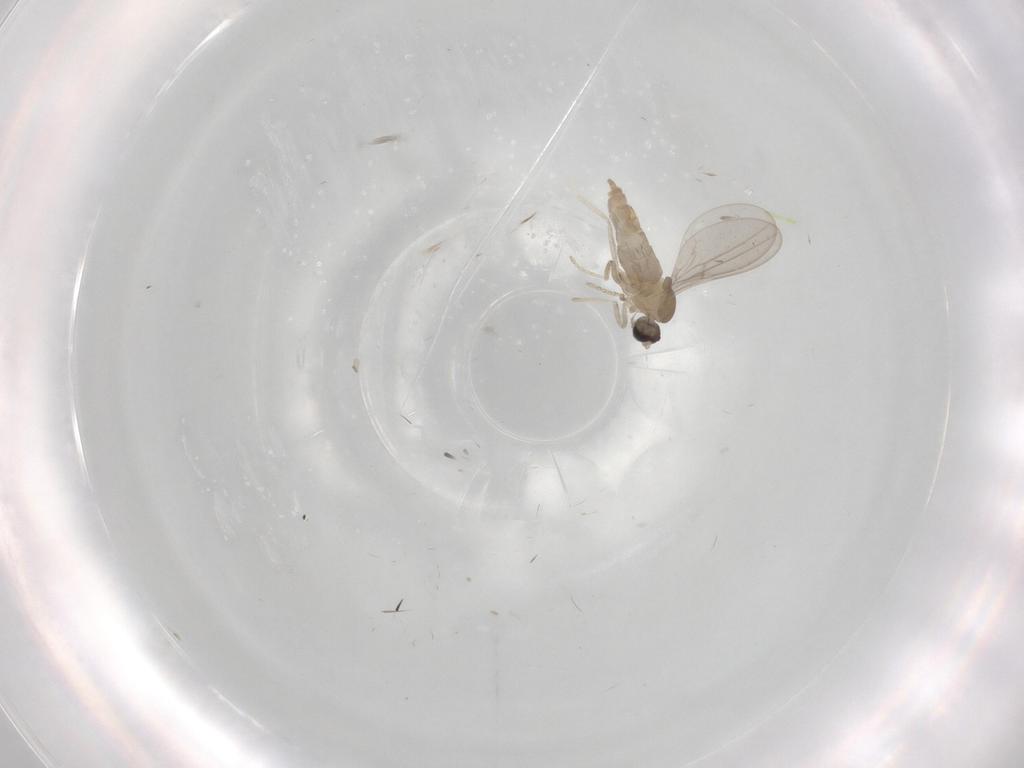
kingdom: Animalia
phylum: Arthropoda
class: Insecta
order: Diptera
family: Cecidomyiidae
